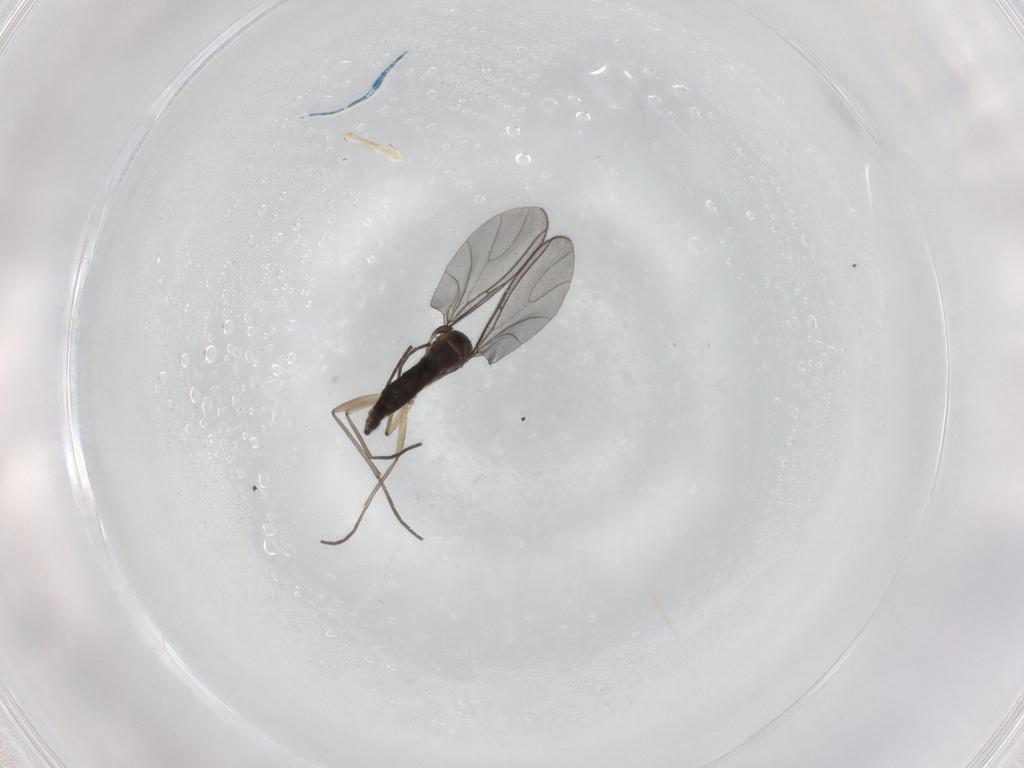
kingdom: Animalia
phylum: Arthropoda
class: Insecta
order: Diptera
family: Sciaridae
